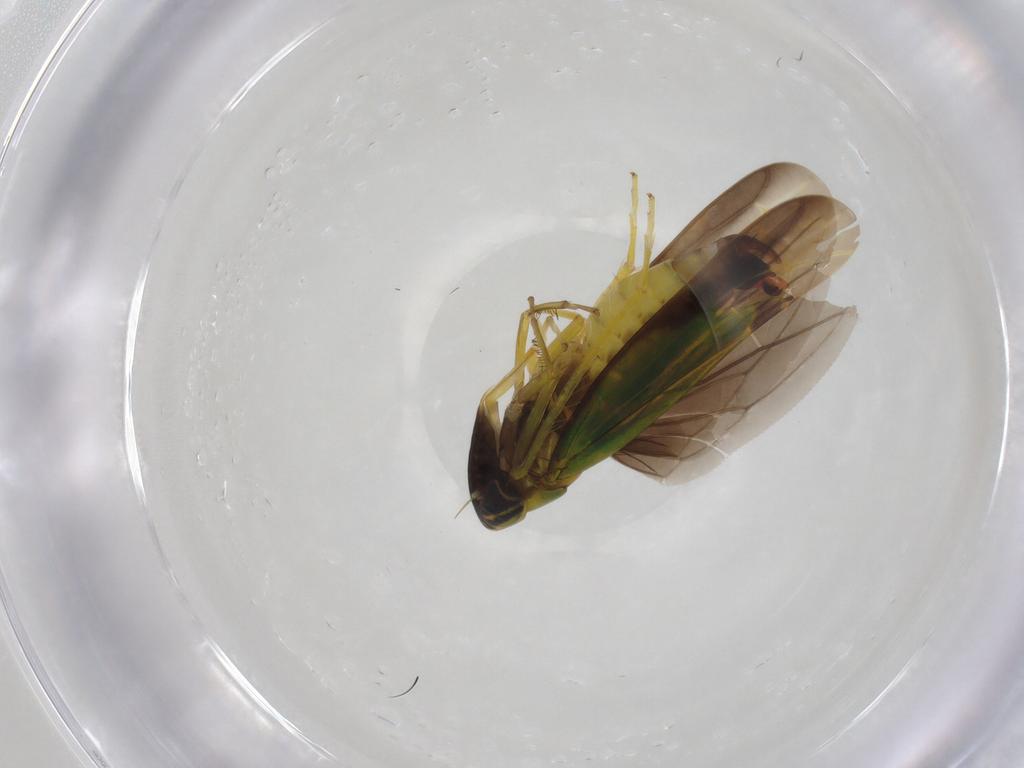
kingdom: Animalia
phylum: Arthropoda
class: Insecta
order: Hemiptera
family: Cicadellidae
